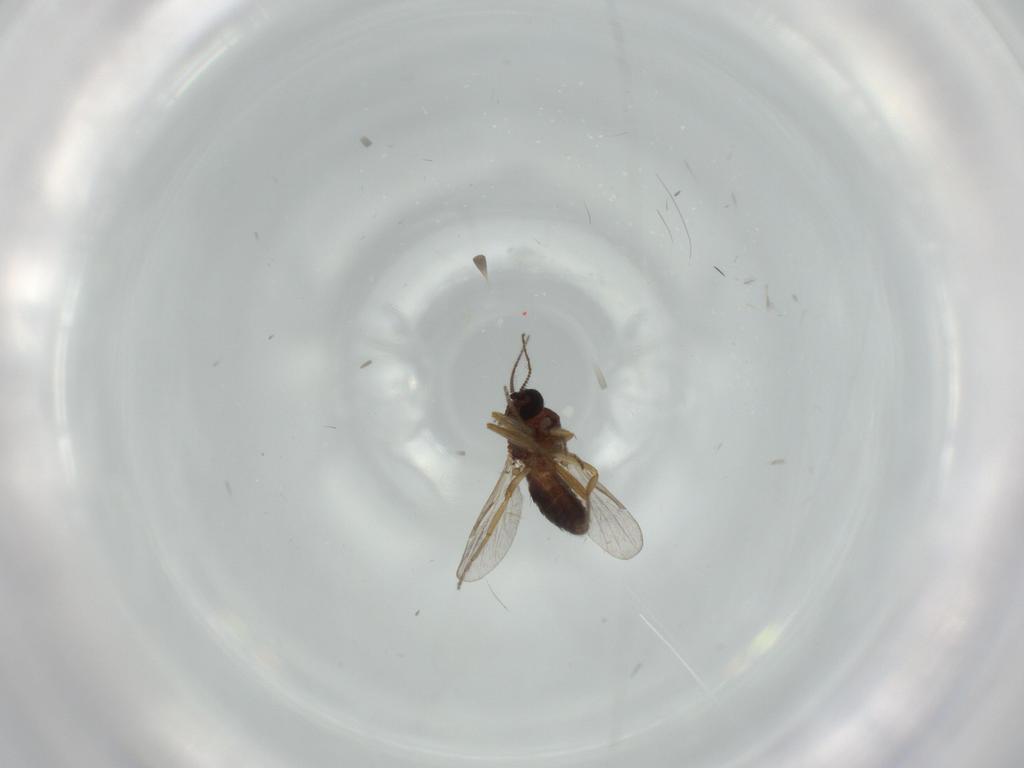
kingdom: Animalia
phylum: Arthropoda
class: Insecta
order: Diptera
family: Ceratopogonidae
